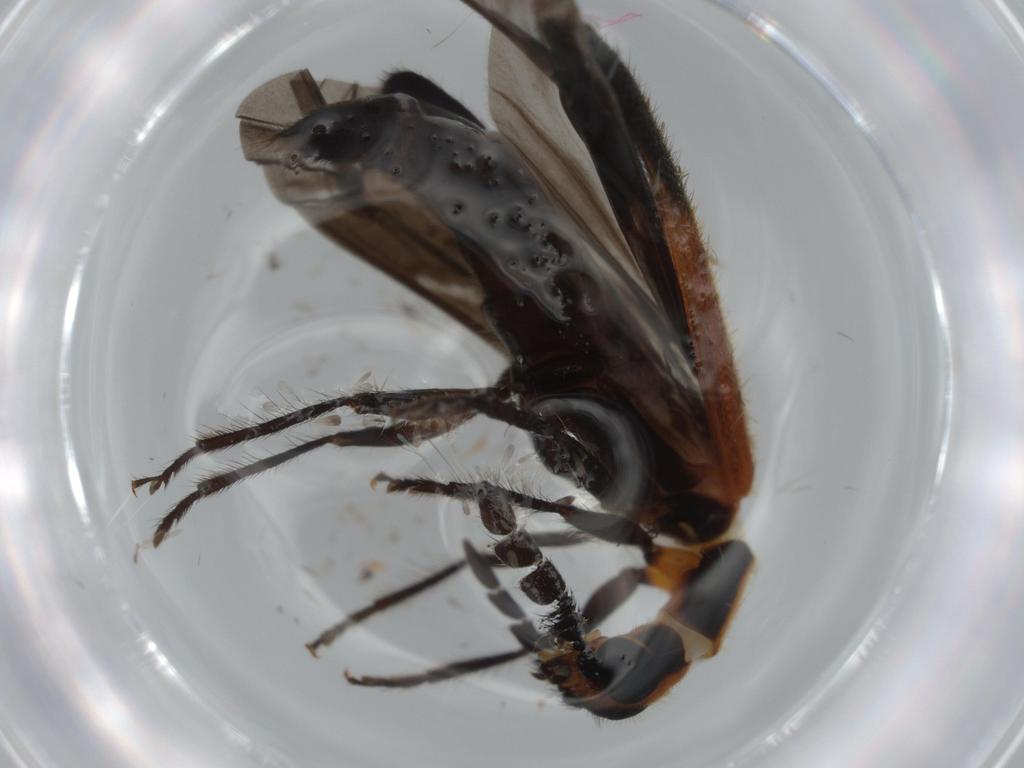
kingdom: Animalia
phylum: Arthropoda
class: Insecta
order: Coleoptera
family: Cleridae
